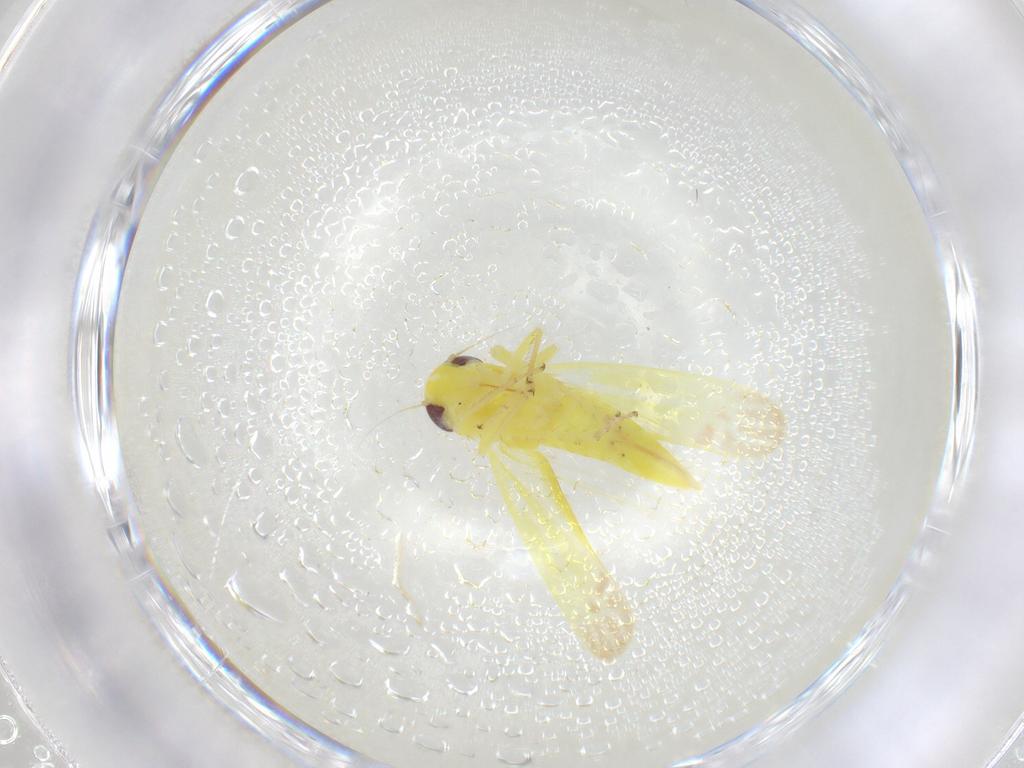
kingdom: Animalia
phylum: Arthropoda
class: Insecta
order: Hemiptera
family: Cicadellidae
